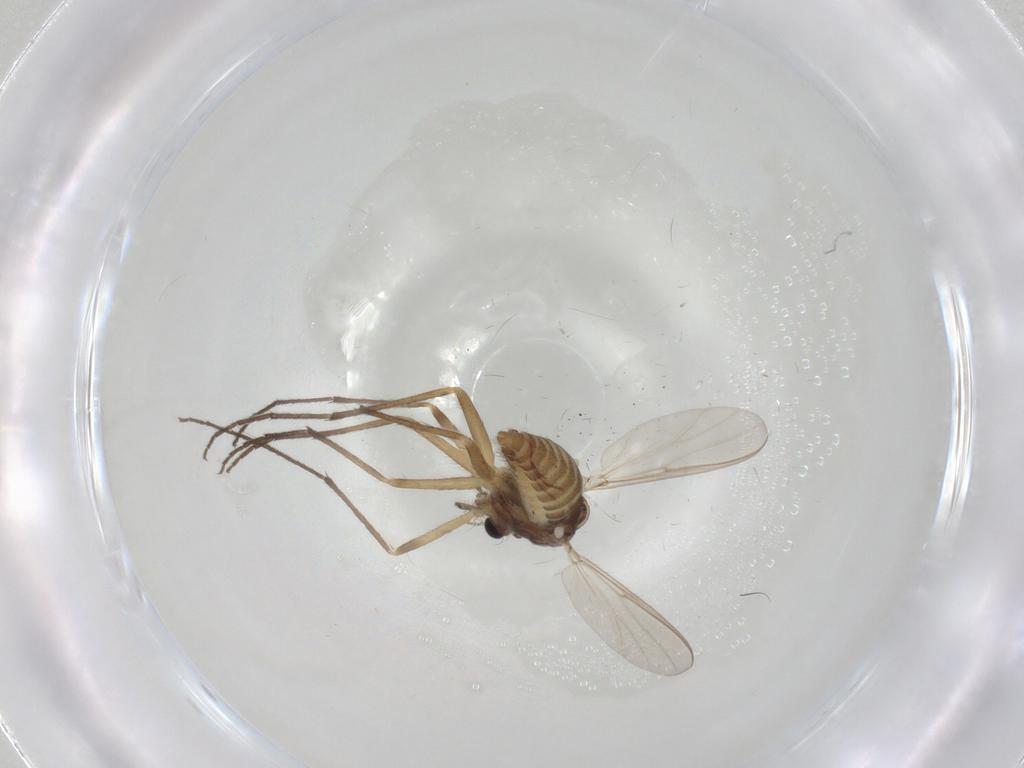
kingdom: Animalia
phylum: Arthropoda
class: Insecta
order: Diptera
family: Chironomidae
